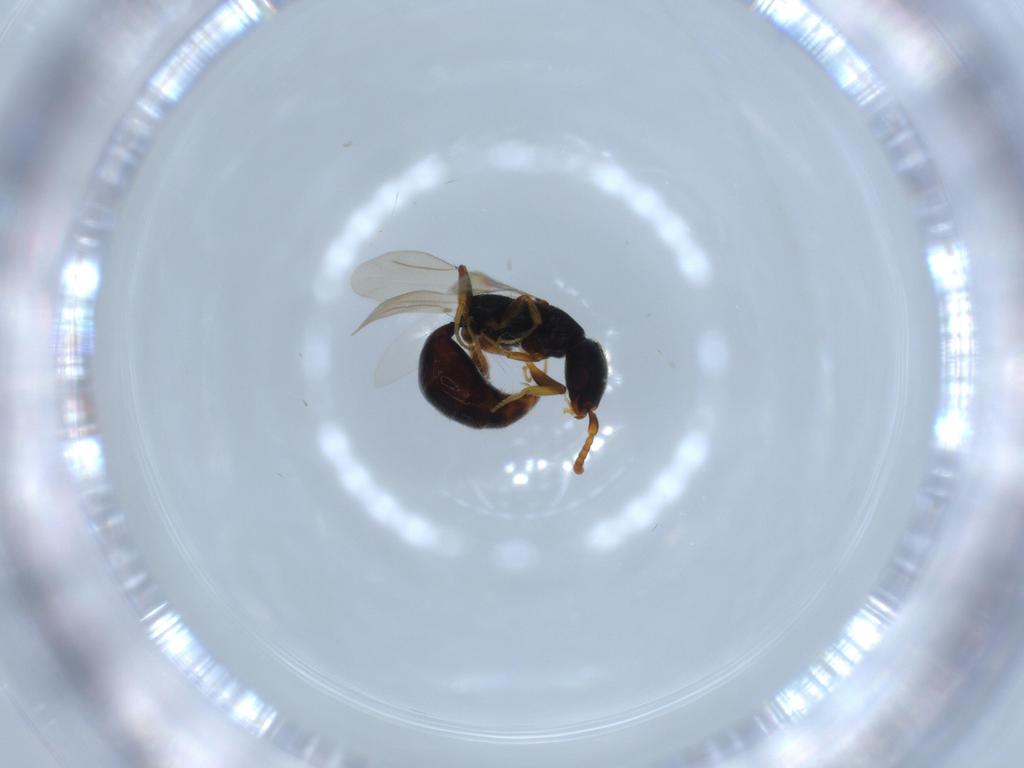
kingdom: Animalia
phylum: Arthropoda
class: Insecta
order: Hymenoptera
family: Bethylidae
